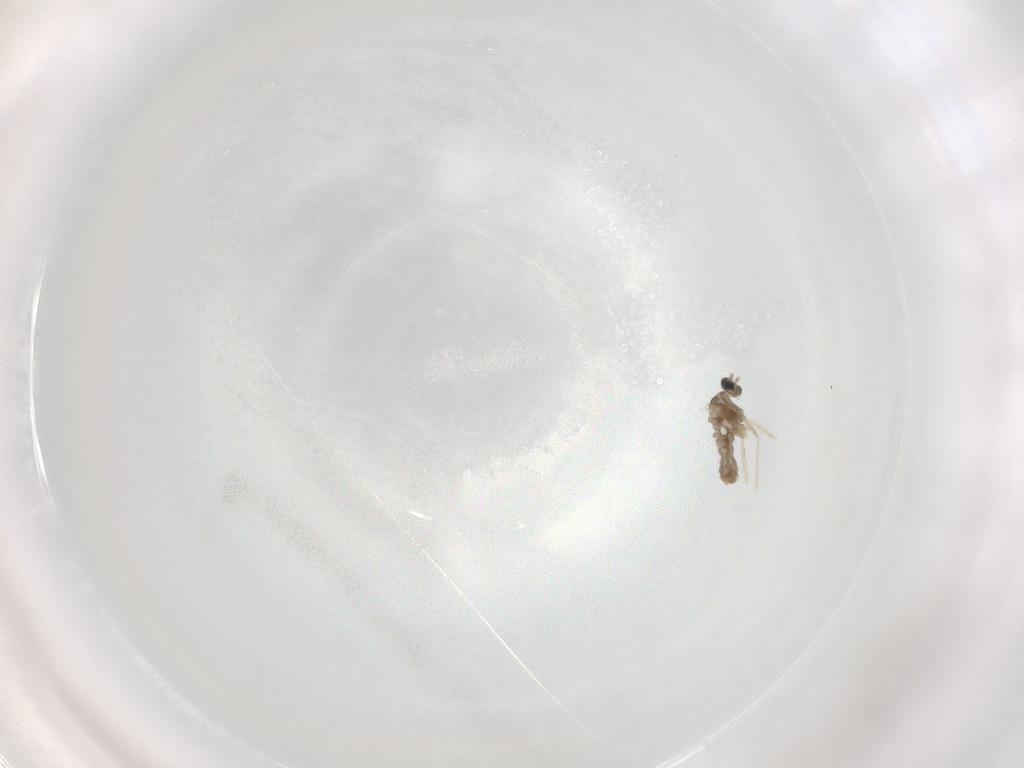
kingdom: Animalia
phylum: Arthropoda
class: Insecta
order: Diptera
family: Cecidomyiidae
